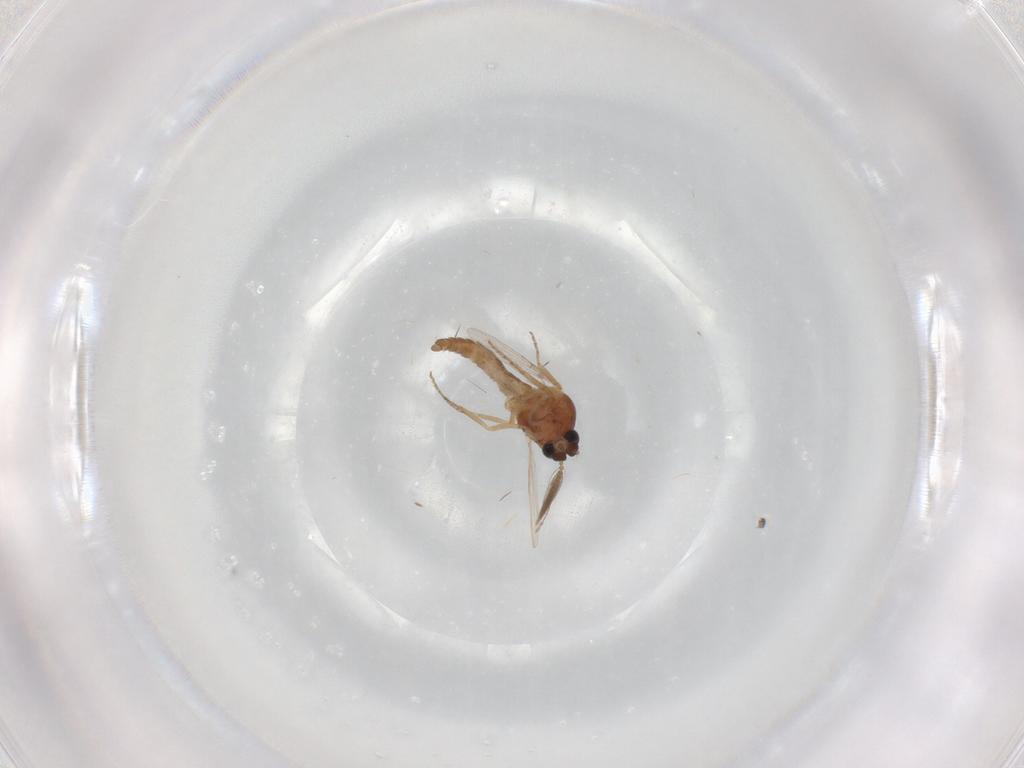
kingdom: Animalia
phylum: Arthropoda
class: Insecta
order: Diptera
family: Ceratopogonidae
